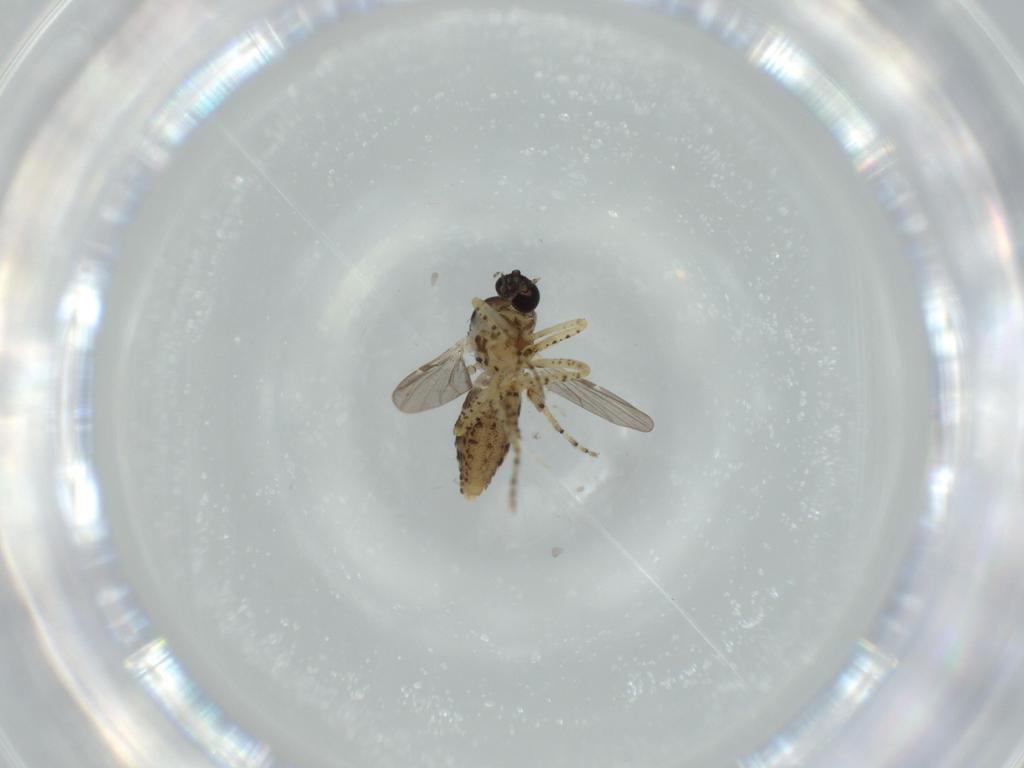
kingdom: Animalia
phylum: Arthropoda
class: Insecta
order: Diptera
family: Ceratopogonidae
